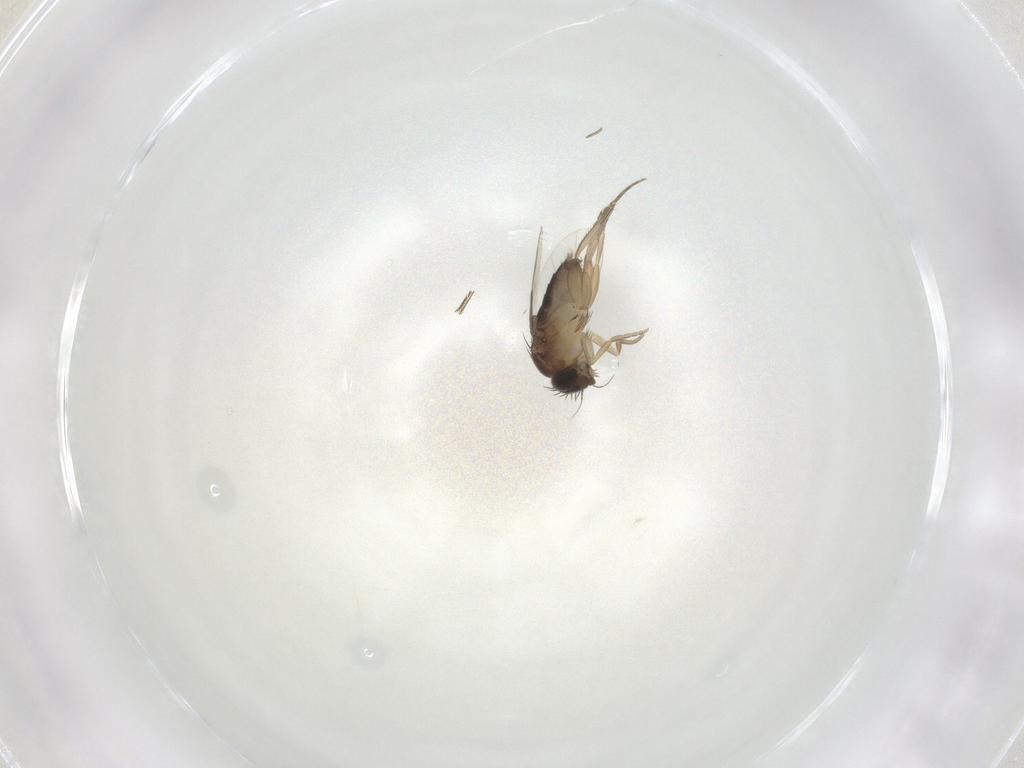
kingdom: Animalia
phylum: Arthropoda
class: Insecta
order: Diptera
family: Phoridae
